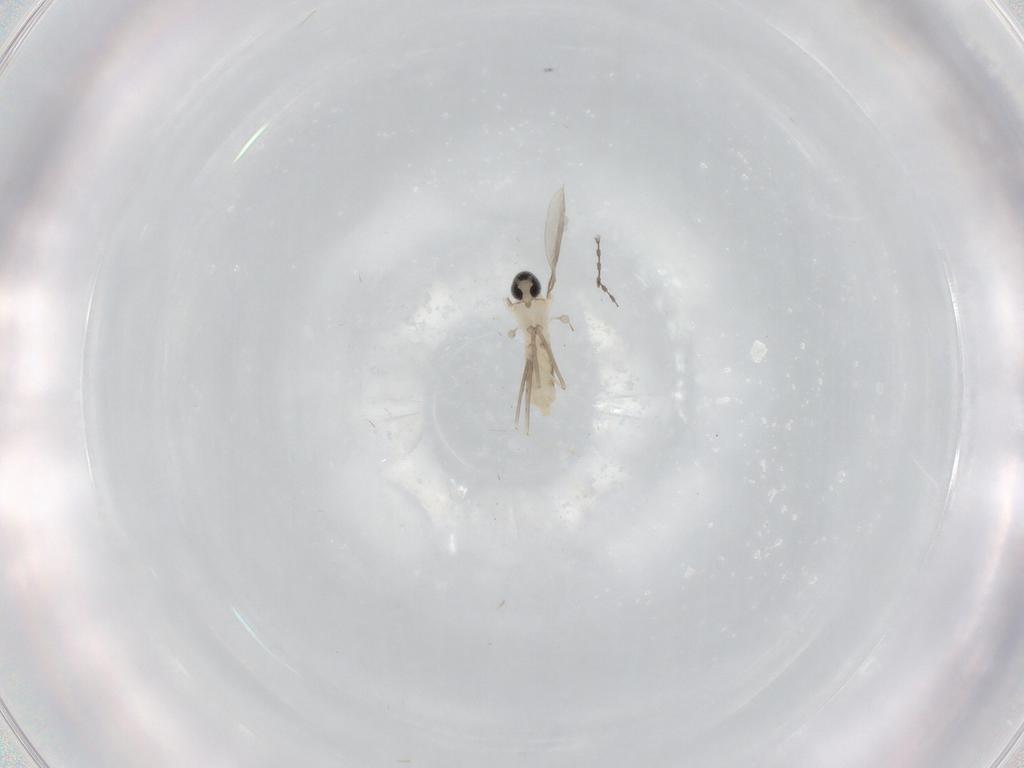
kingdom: Animalia
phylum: Arthropoda
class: Insecta
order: Diptera
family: Cecidomyiidae
